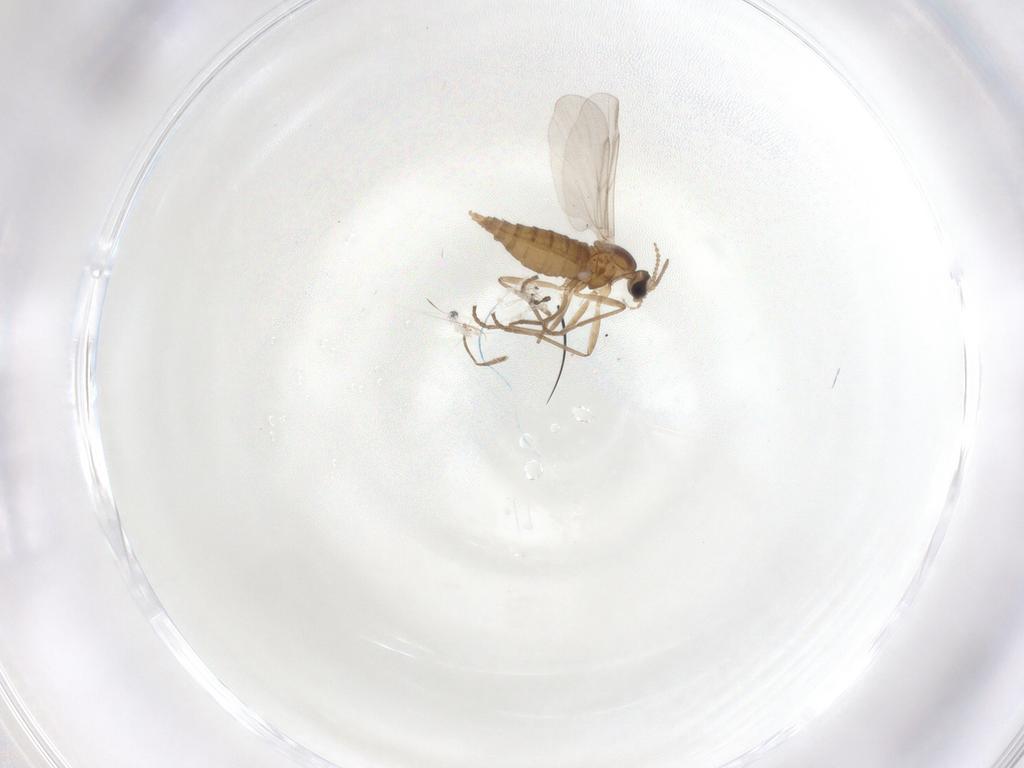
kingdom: Animalia
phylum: Arthropoda
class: Insecta
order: Diptera
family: Cecidomyiidae
